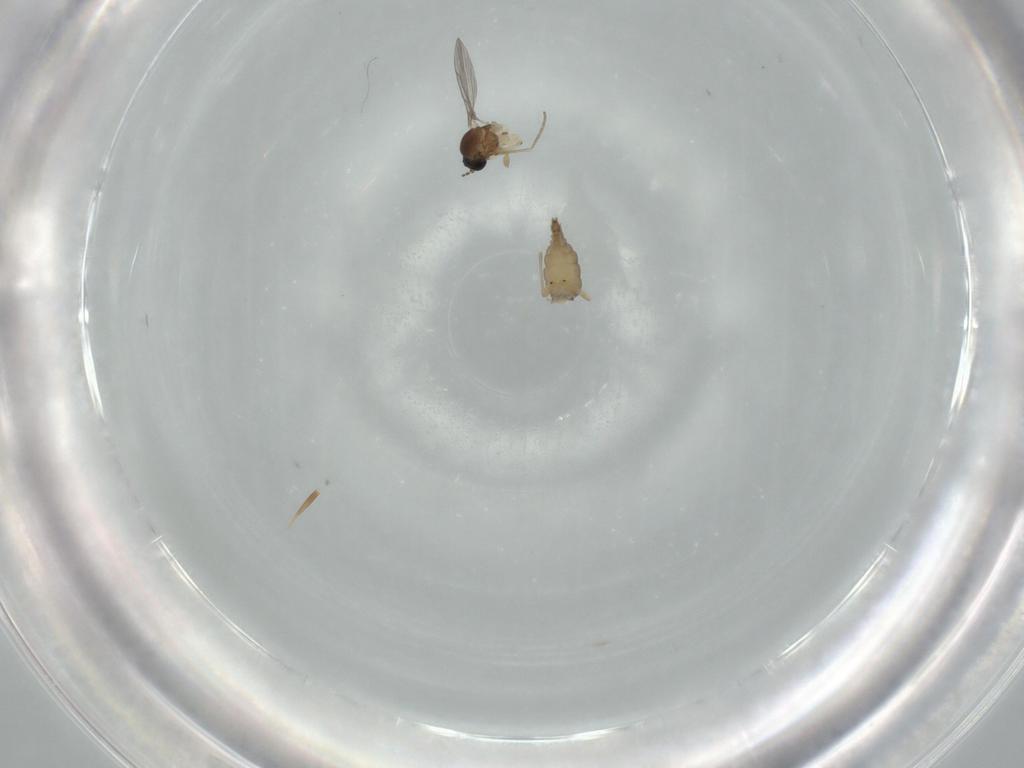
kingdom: Animalia
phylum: Arthropoda
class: Insecta
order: Diptera
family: Sciaridae
